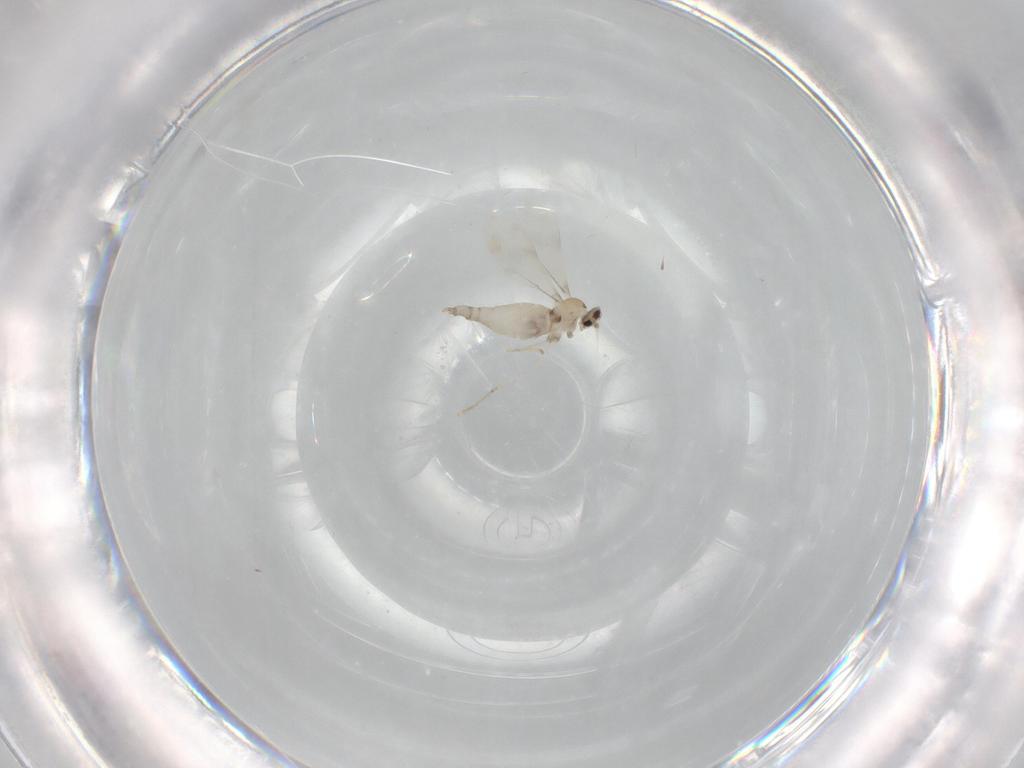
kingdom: Animalia
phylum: Arthropoda
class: Insecta
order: Diptera
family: Cecidomyiidae
